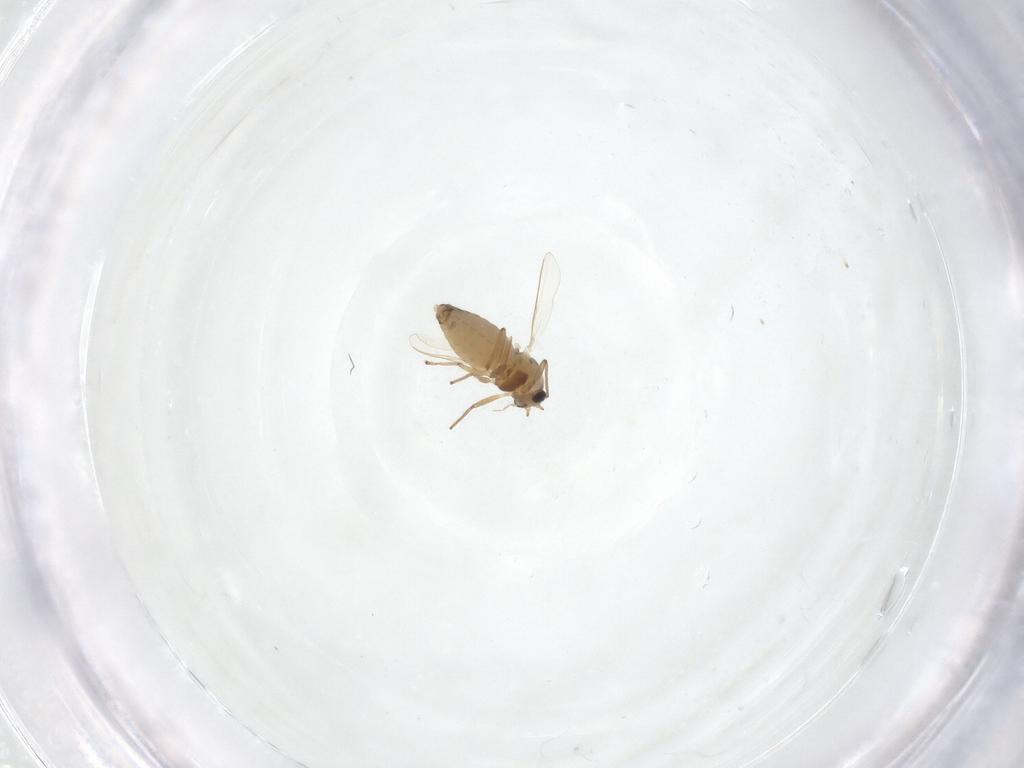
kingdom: Animalia
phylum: Arthropoda
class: Insecta
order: Diptera
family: Chironomidae
